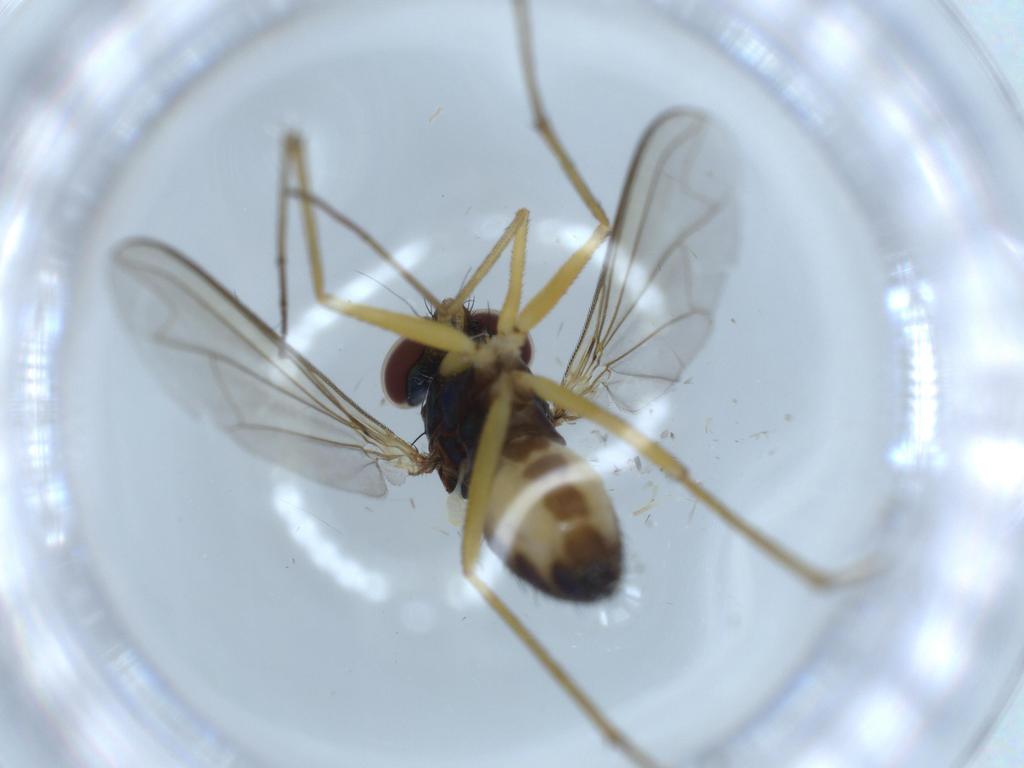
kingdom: Animalia
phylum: Arthropoda
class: Insecta
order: Diptera
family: Dolichopodidae
